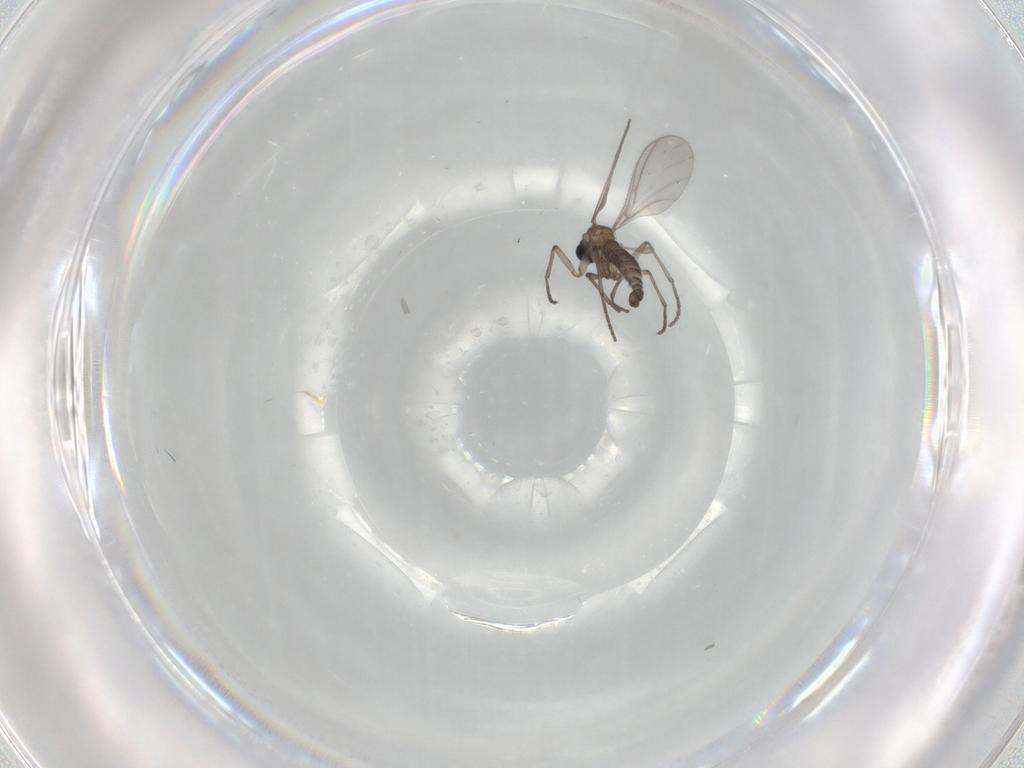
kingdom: Animalia
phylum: Arthropoda
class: Insecta
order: Diptera
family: Sciaridae
